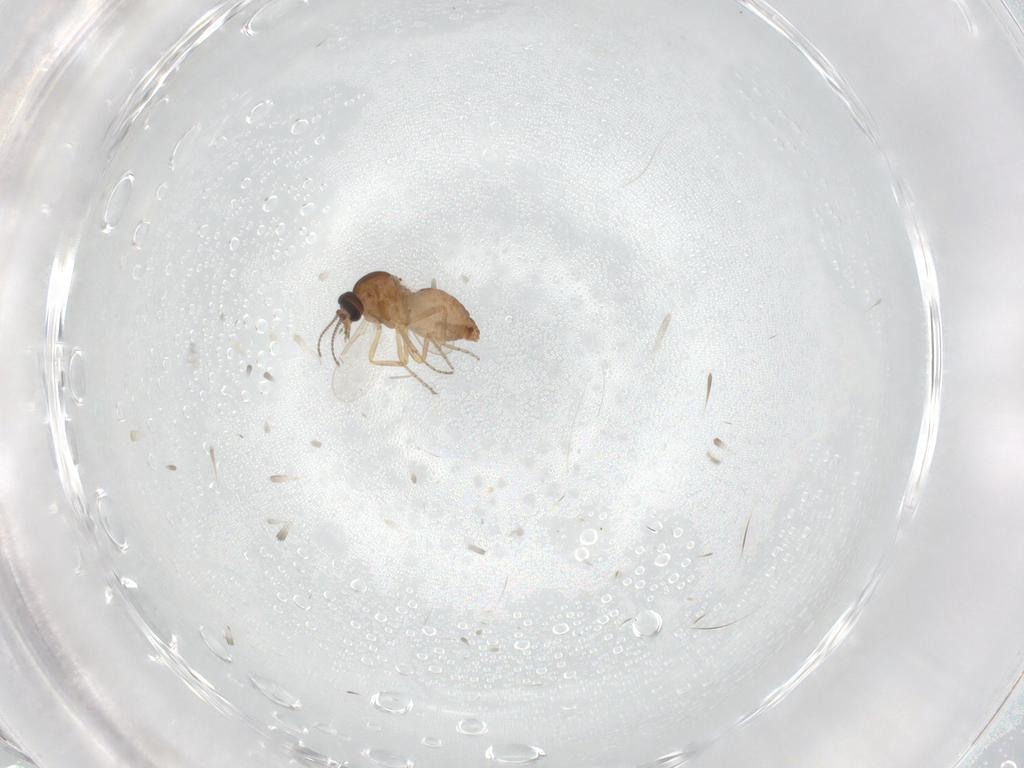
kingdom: Animalia
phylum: Arthropoda
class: Insecta
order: Diptera
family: Ceratopogonidae
